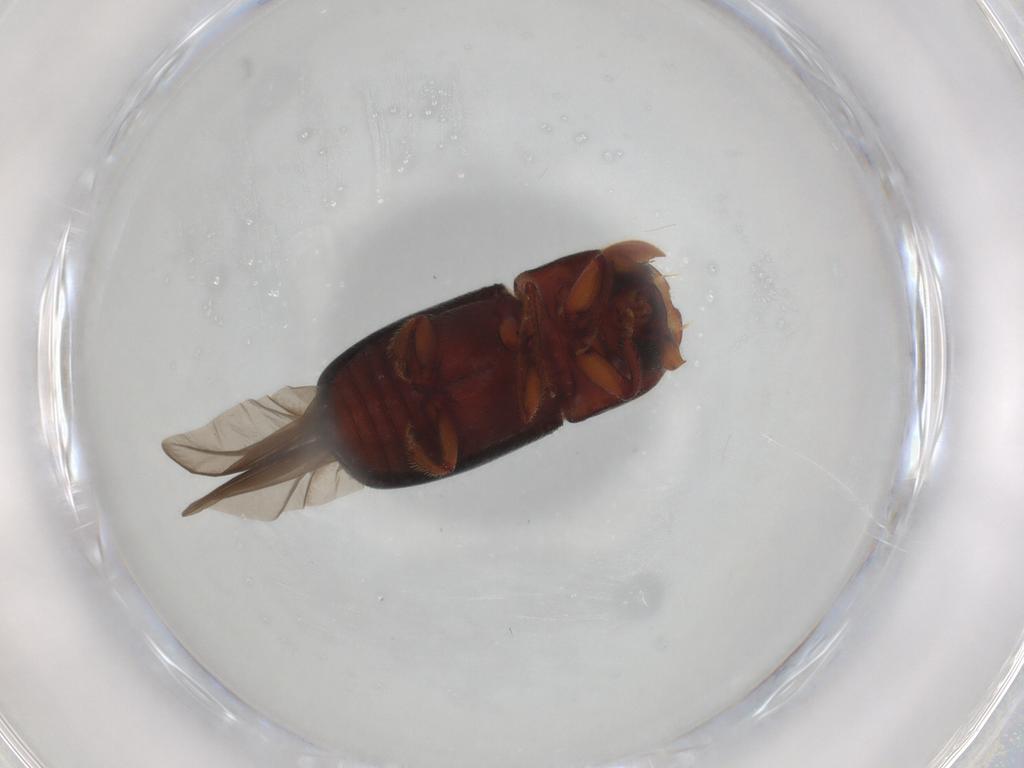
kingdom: Animalia
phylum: Arthropoda
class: Insecta
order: Coleoptera
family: Curculionidae
